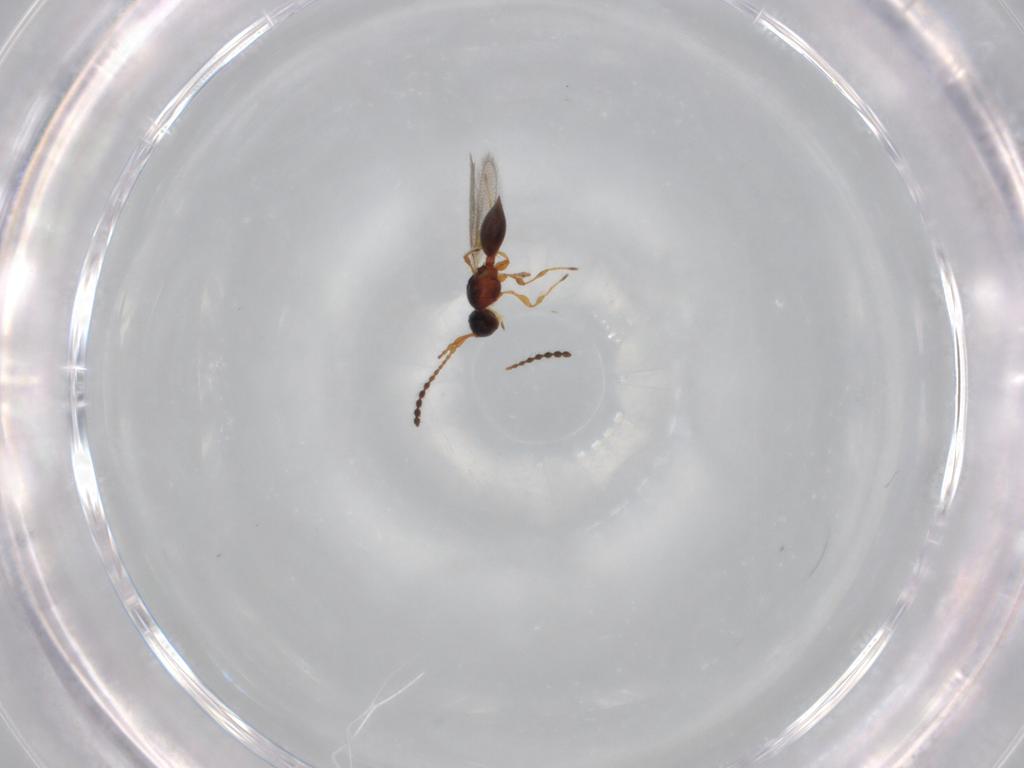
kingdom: Animalia
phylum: Arthropoda
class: Insecta
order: Hymenoptera
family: Diapriidae
